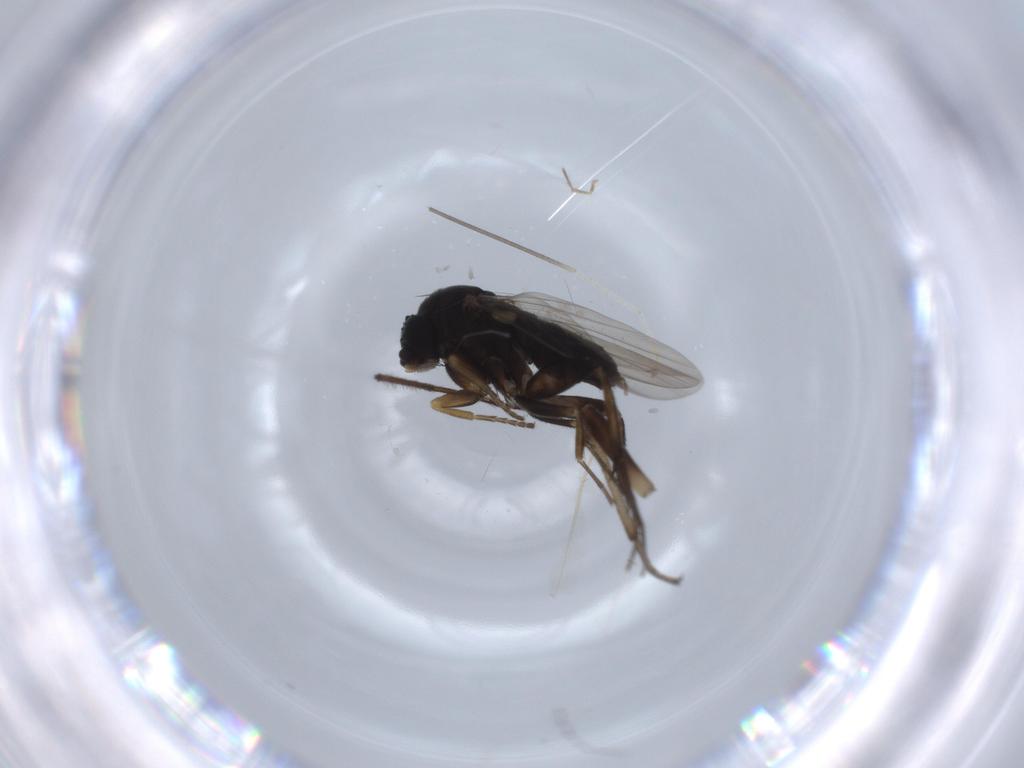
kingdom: Animalia
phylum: Arthropoda
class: Insecta
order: Diptera
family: Phoridae
